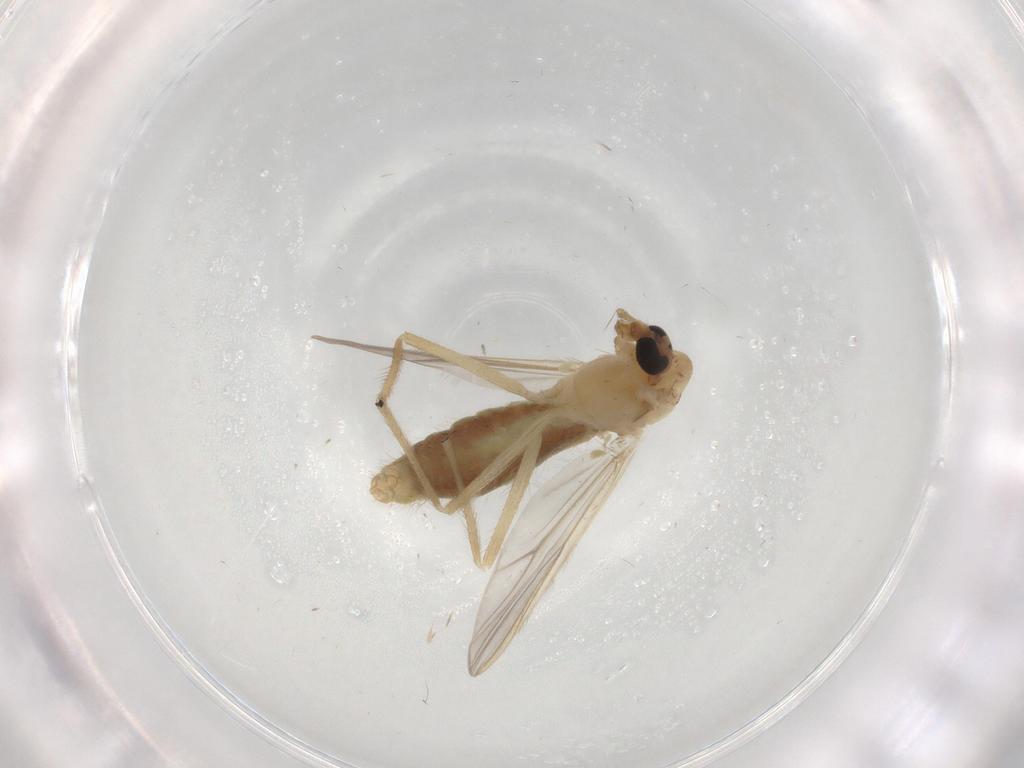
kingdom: Animalia
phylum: Arthropoda
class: Insecta
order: Diptera
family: Chironomidae
